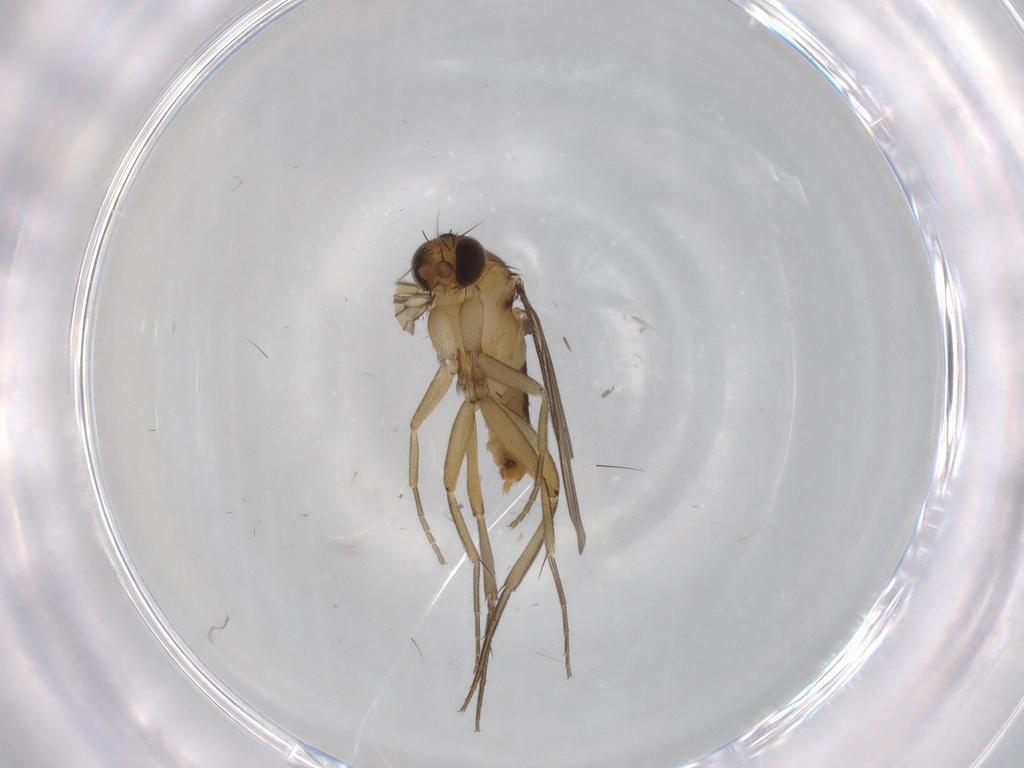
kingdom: Animalia
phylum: Arthropoda
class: Insecta
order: Diptera
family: Phoridae
